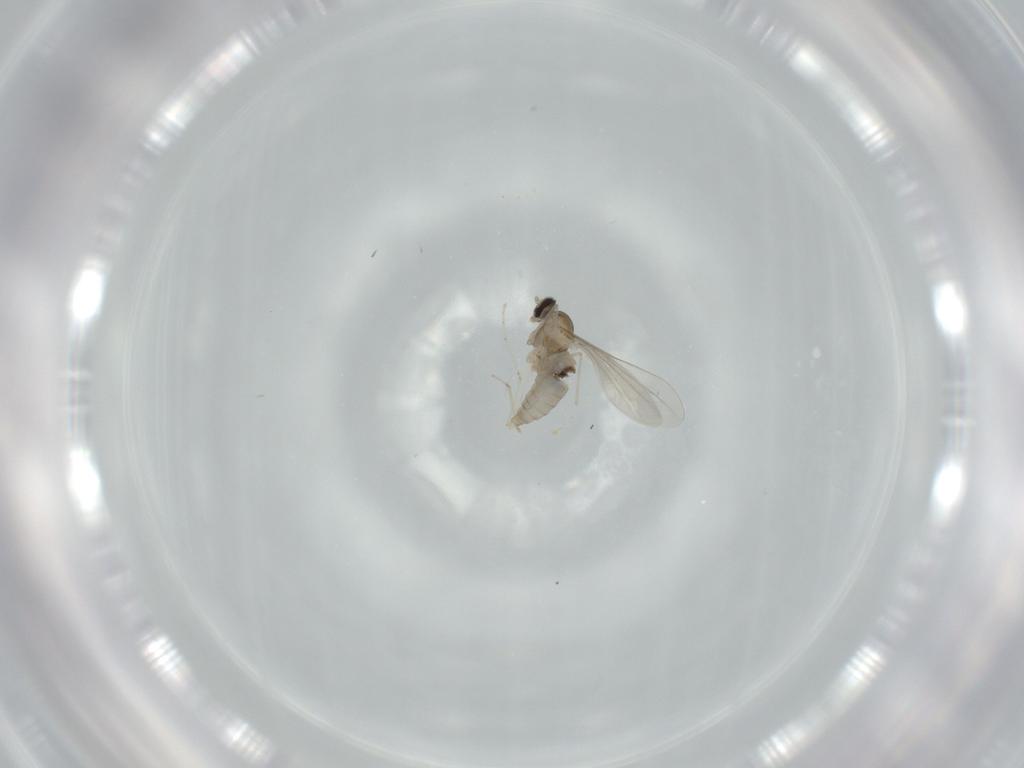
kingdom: Animalia
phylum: Arthropoda
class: Insecta
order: Diptera
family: Cecidomyiidae
